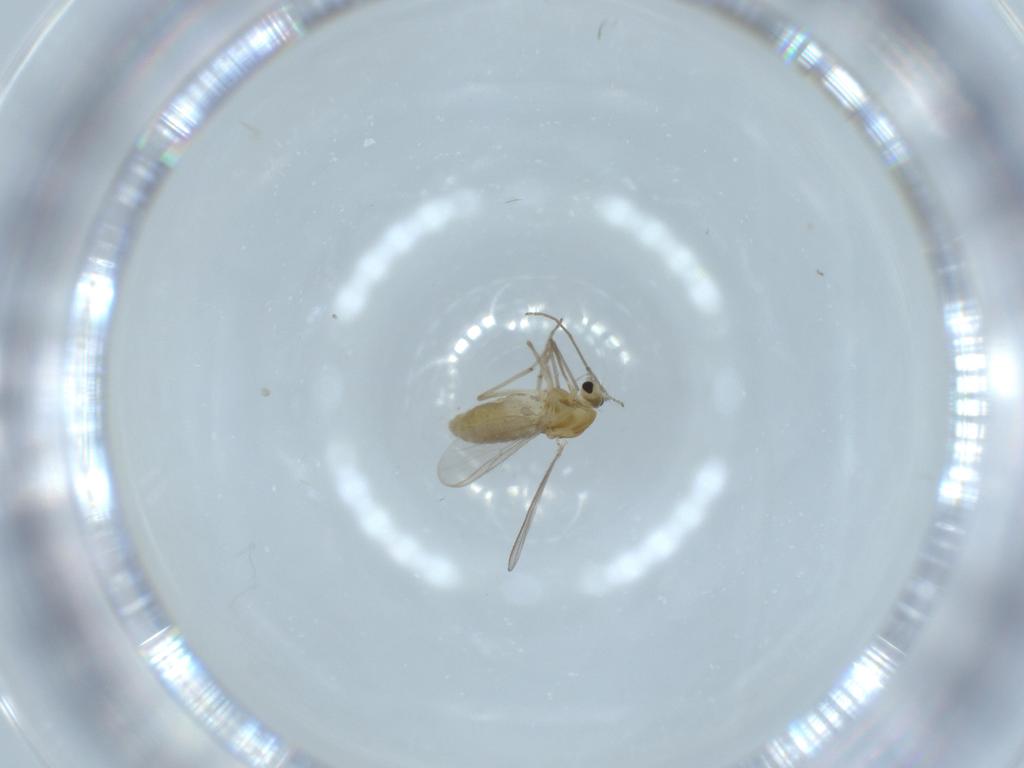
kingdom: Animalia
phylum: Arthropoda
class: Insecta
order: Diptera
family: Chironomidae
